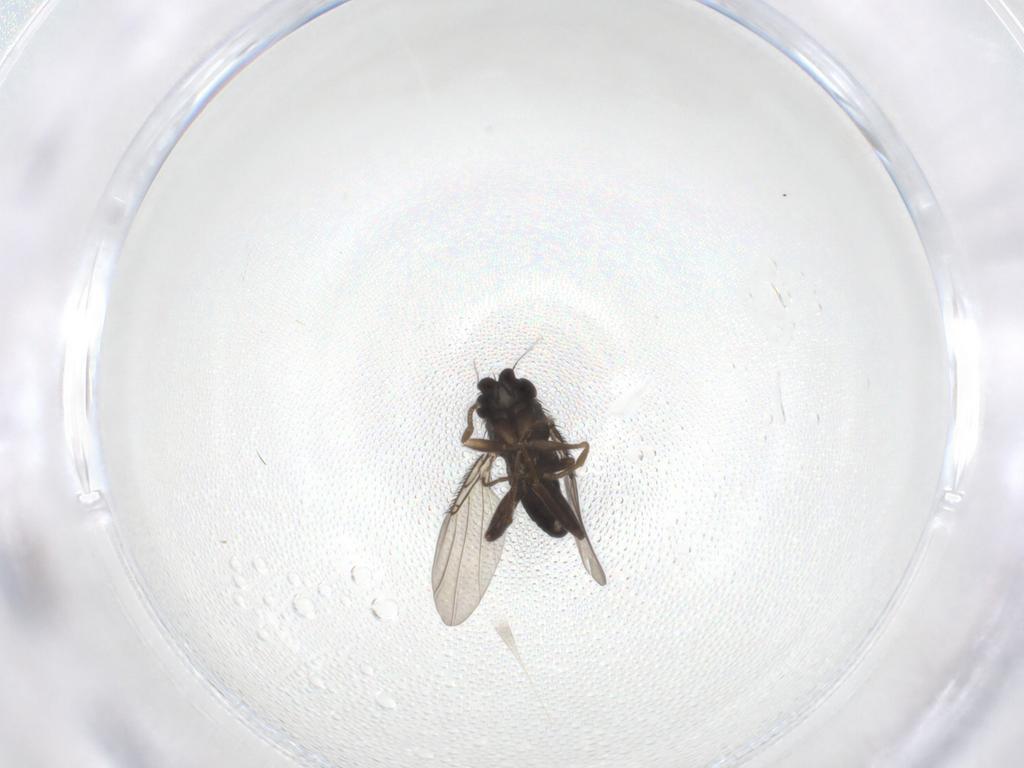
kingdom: Animalia
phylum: Arthropoda
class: Insecta
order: Diptera
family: Phoridae
